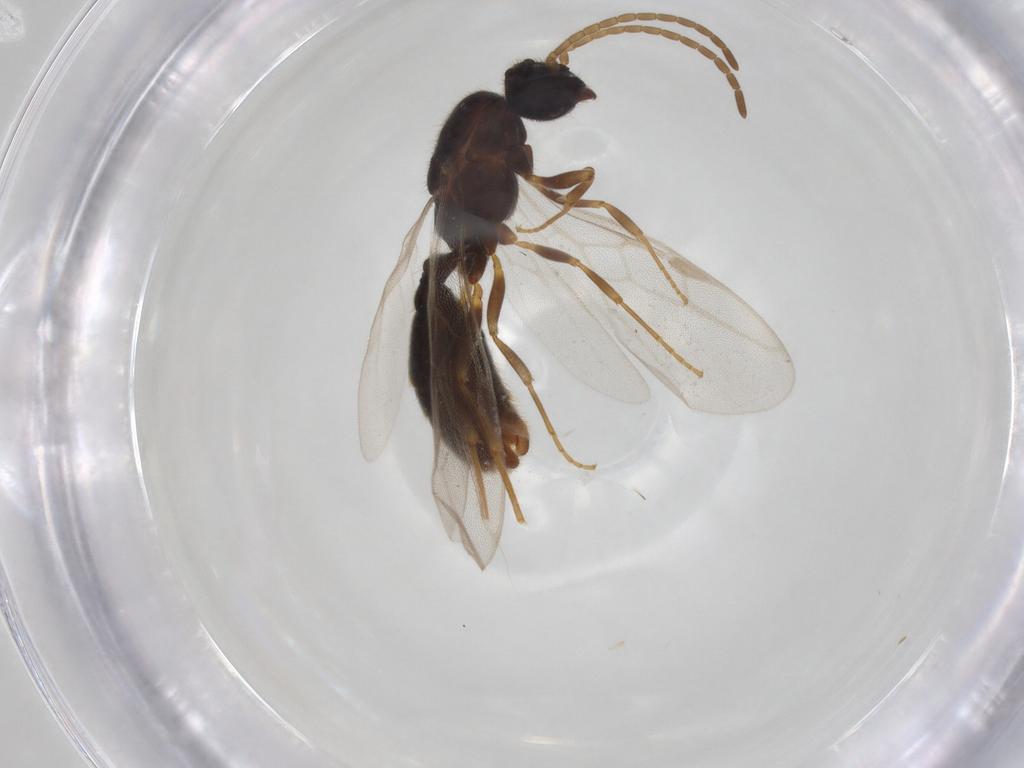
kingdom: Animalia
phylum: Arthropoda
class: Insecta
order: Hymenoptera
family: Formicidae
